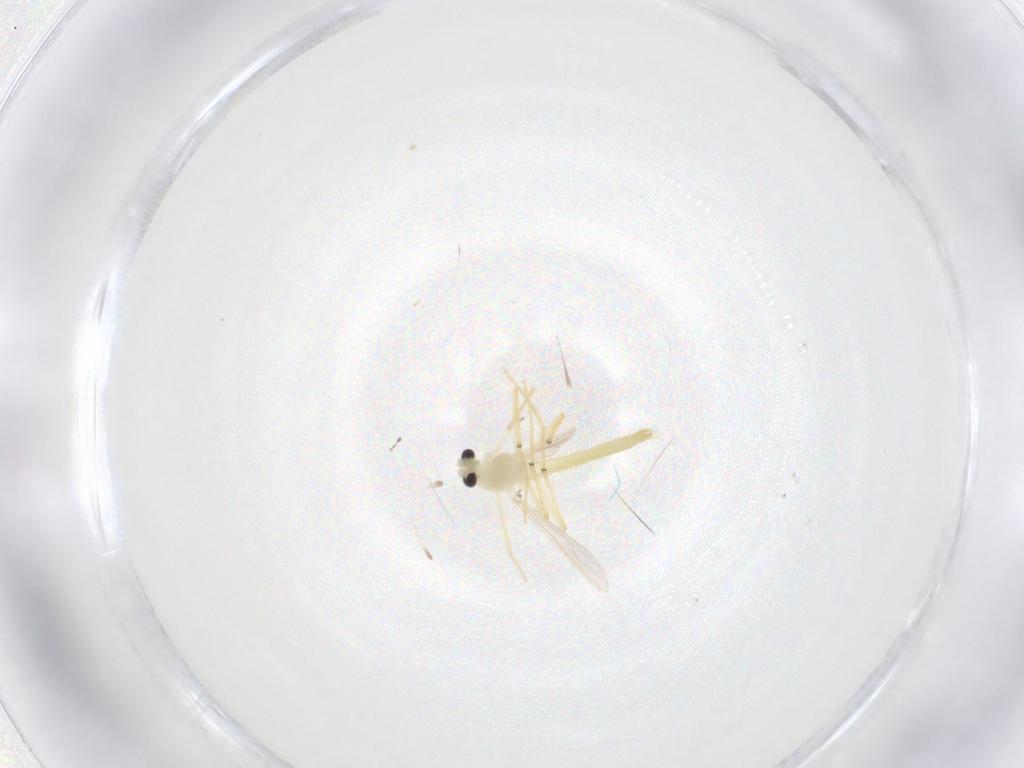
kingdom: Animalia
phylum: Arthropoda
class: Insecta
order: Diptera
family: Chironomidae
